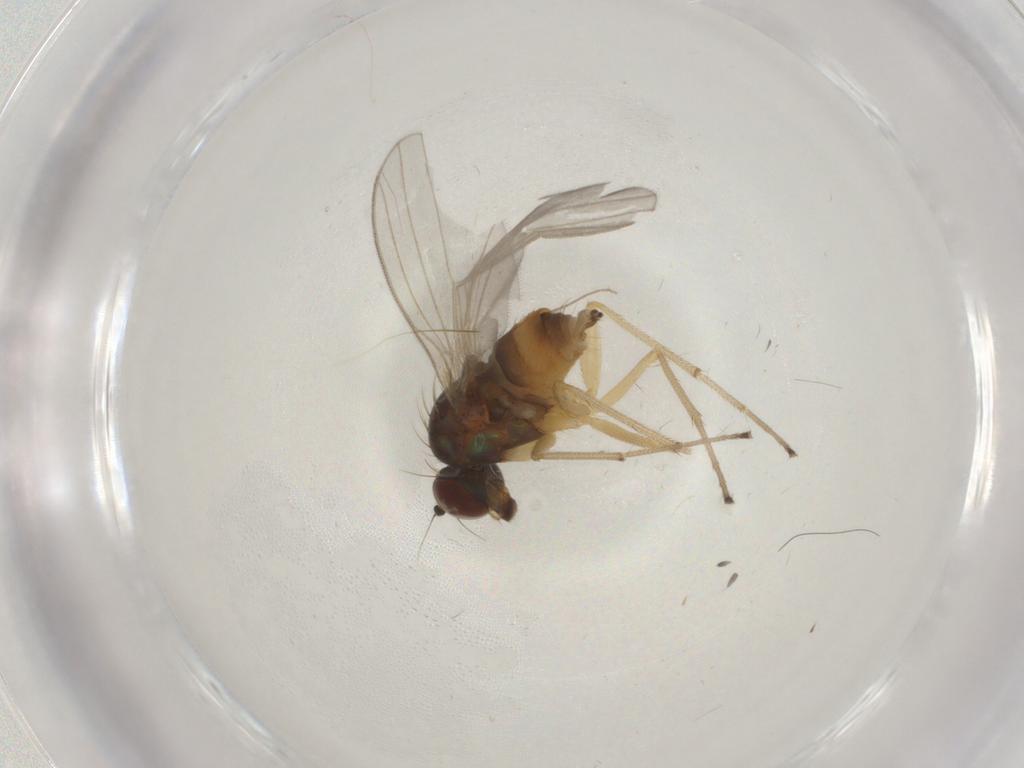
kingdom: Animalia
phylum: Arthropoda
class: Insecta
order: Diptera
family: Dolichopodidae
